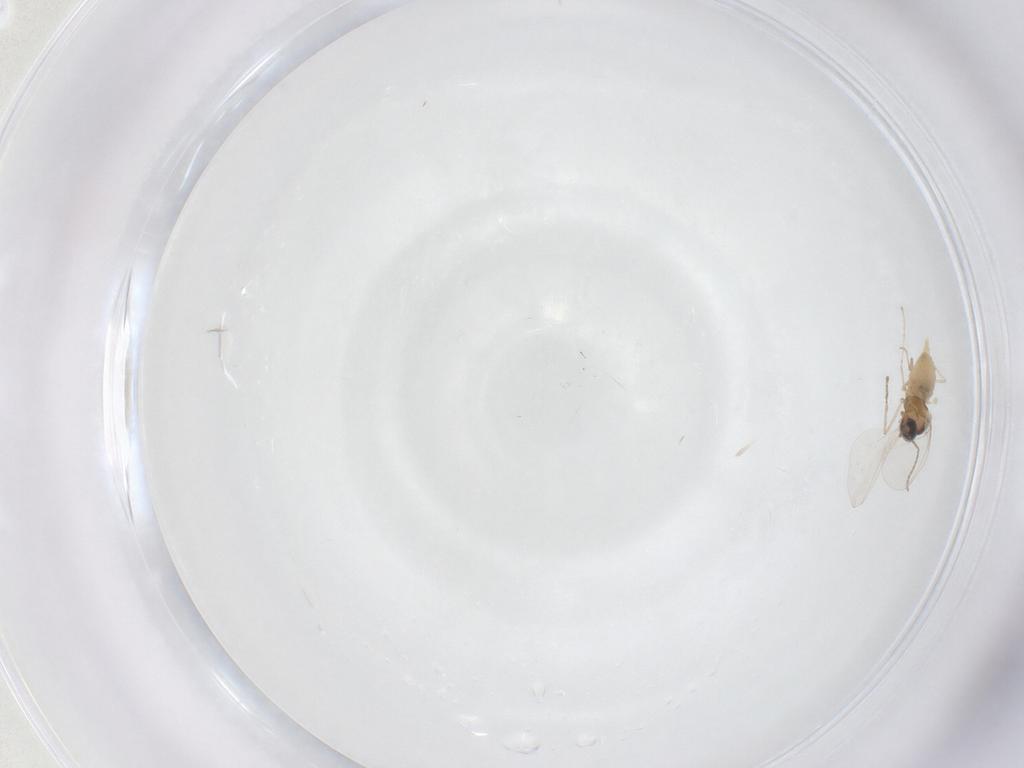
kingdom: Animalia
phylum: Arthropoda
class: Insecta
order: Diptera
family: Cecidomyiidae
